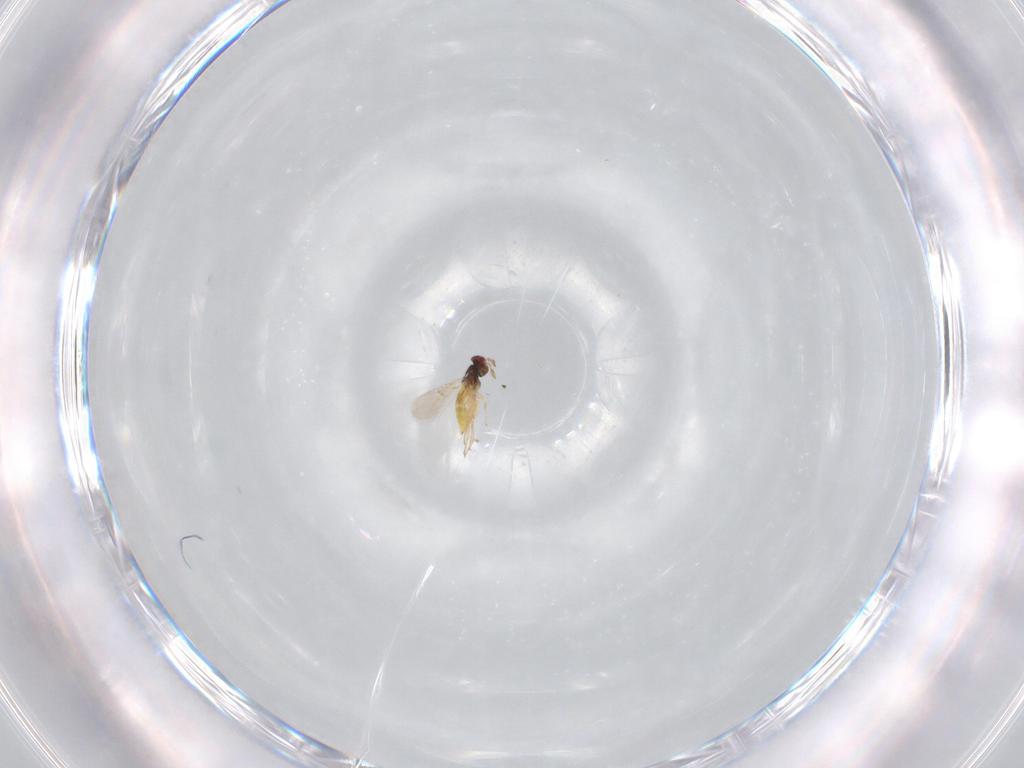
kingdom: Animalia
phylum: Arthropoda
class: Insecta
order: Hymenoptera
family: Trichogrammatidae
